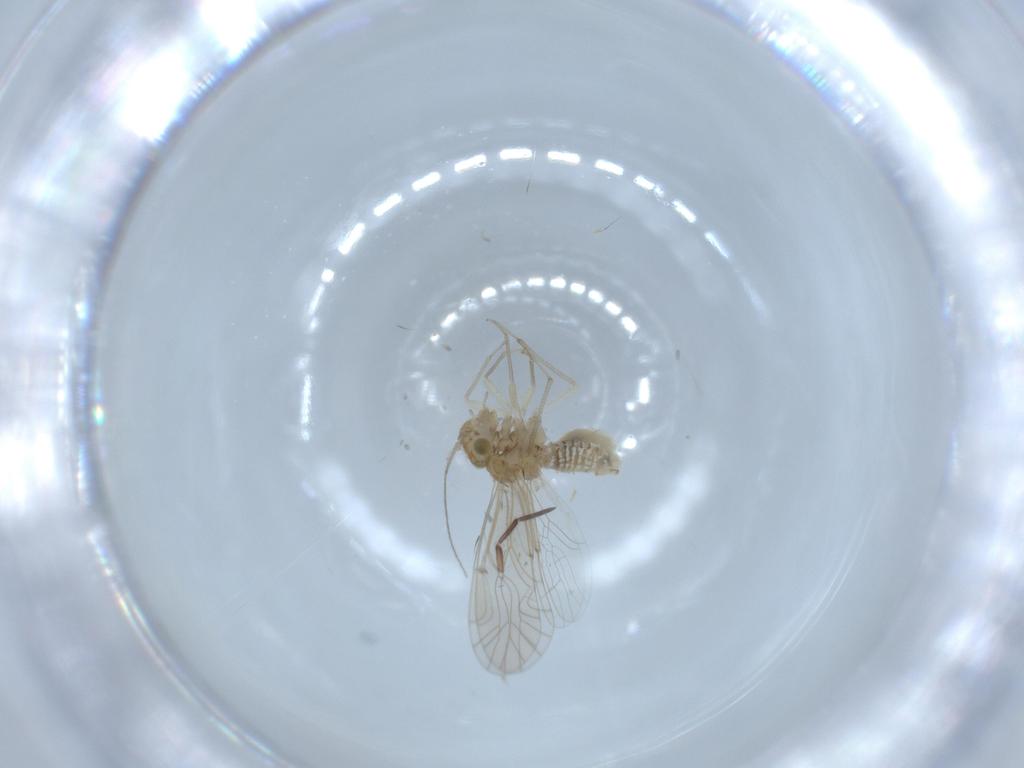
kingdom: Animalia
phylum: Arthropoda
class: Insecta
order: Psocodea
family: Lachesillidae
